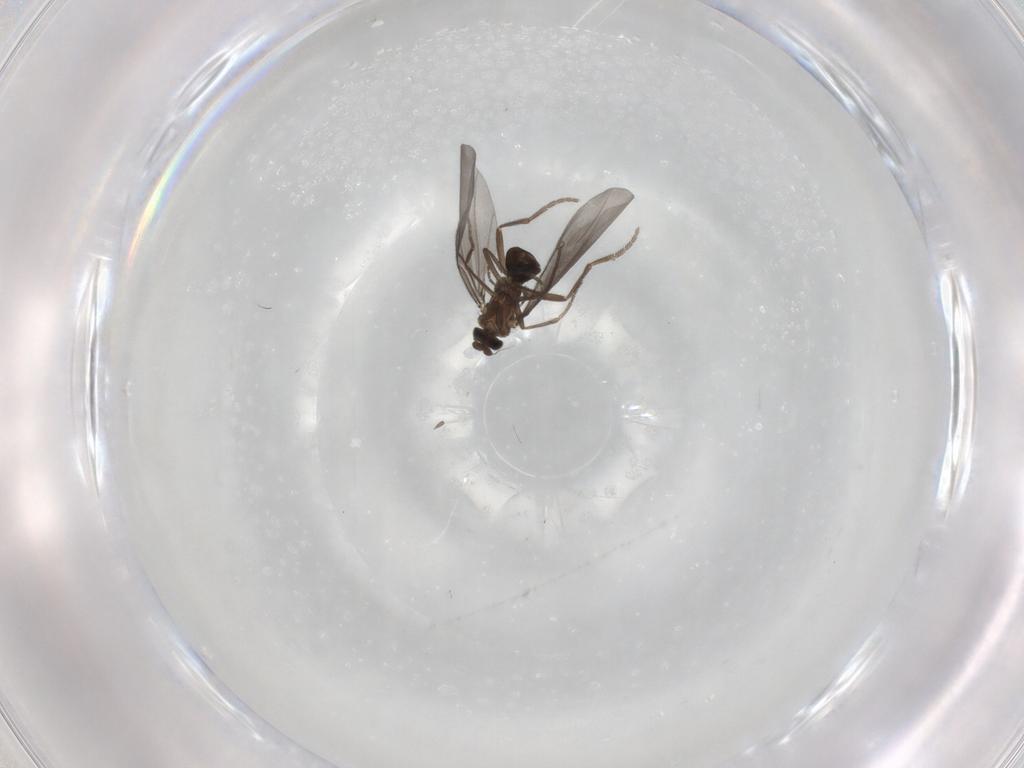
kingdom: Animalia
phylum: Arthropoda
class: Insecta
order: Diptera
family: Phoridae
